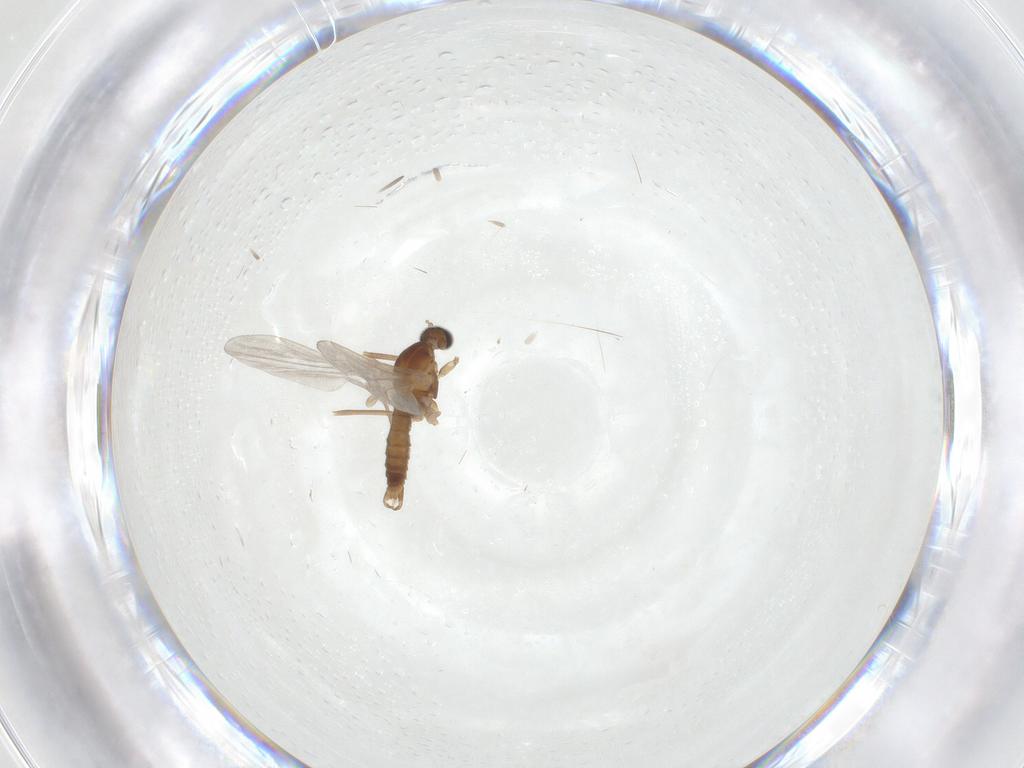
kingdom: Animalia
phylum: Arthropoda
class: Insecta
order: Diptera
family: Cecidomyiidae
